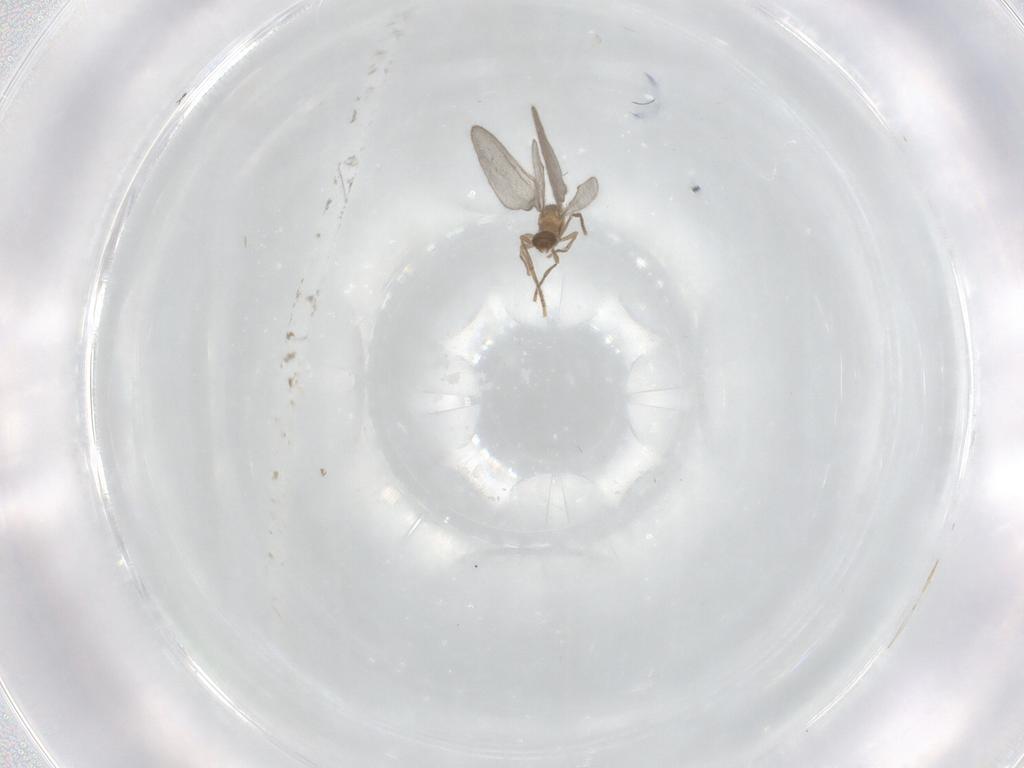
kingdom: Animalia
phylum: Arthropoda
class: Insecta
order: Hymenoptera
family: Formicidae
